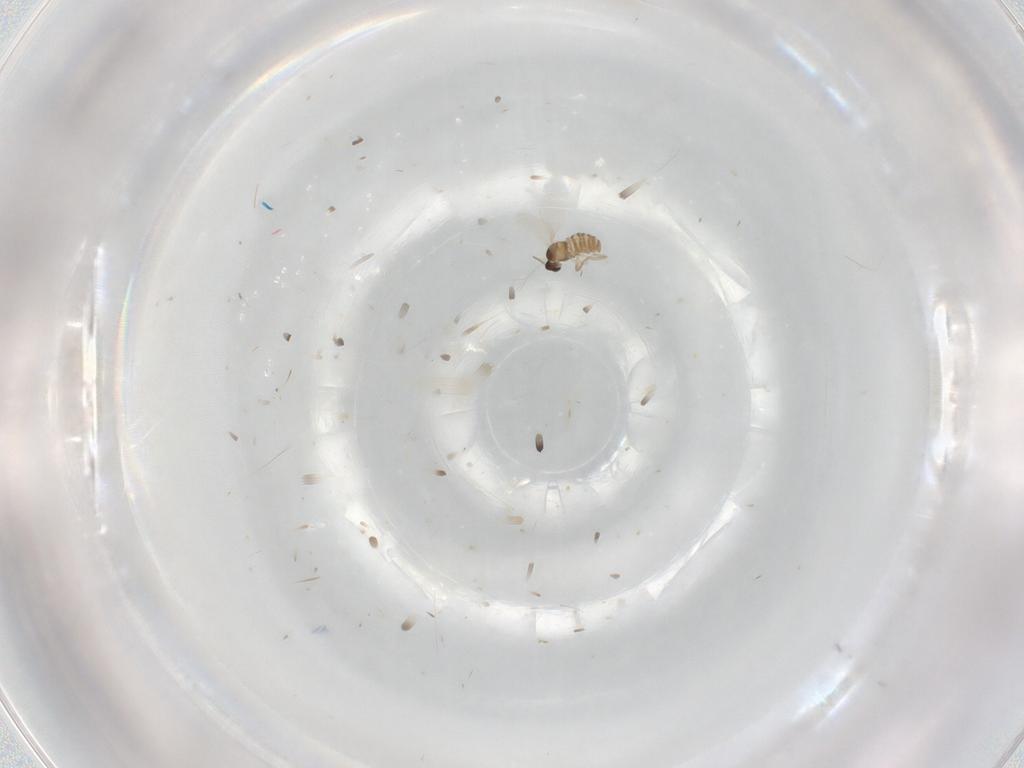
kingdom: Animalia
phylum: Arthropoda
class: Insecta
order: Diptera
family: Cecidomyiidae
